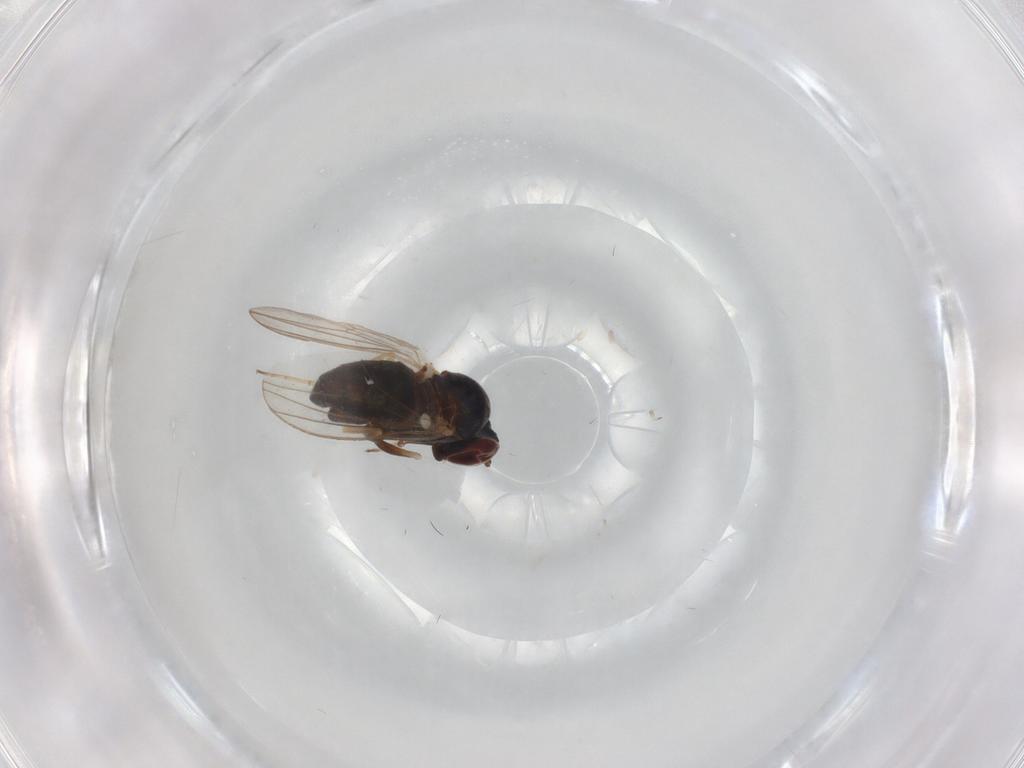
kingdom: Animalia
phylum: Arthropoda
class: Insecta
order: Diptera
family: Dolichopodidae
